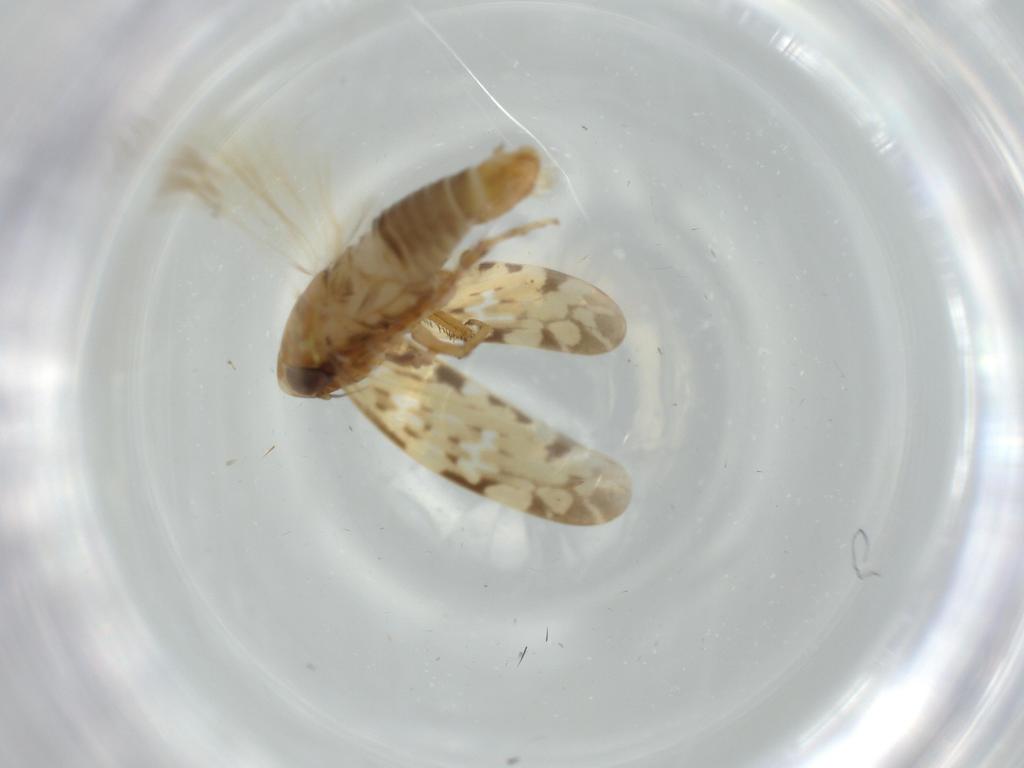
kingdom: Animalia
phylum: Arthropoda
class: Insecta
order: Hemiptera
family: Cicadellidae
